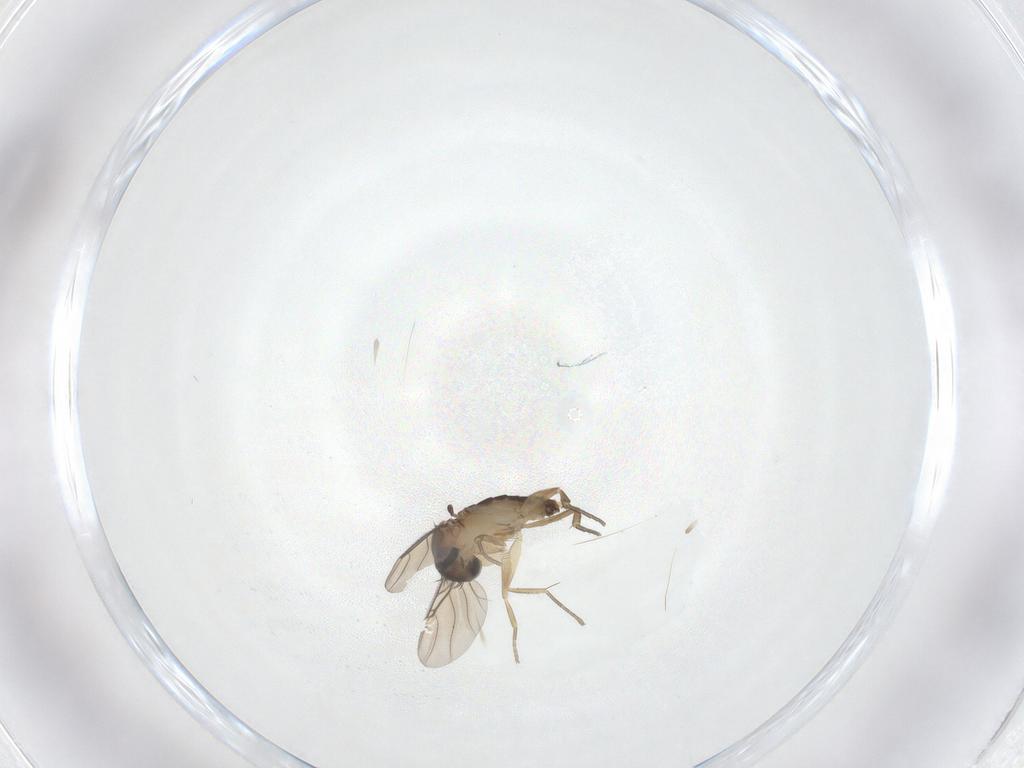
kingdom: Animalia
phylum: Arthropoda
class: Insecta
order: Diptera
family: Phoridae
